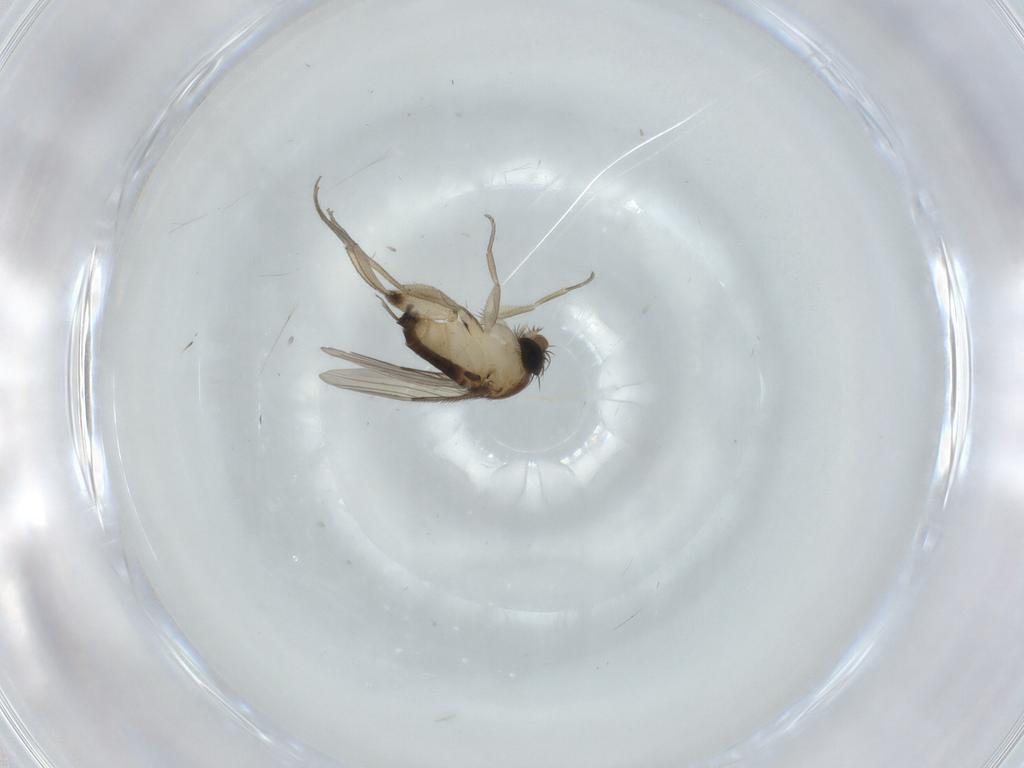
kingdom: Animalia
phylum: Arthropoda
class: Insecta
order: Diptera
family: Phoridae
